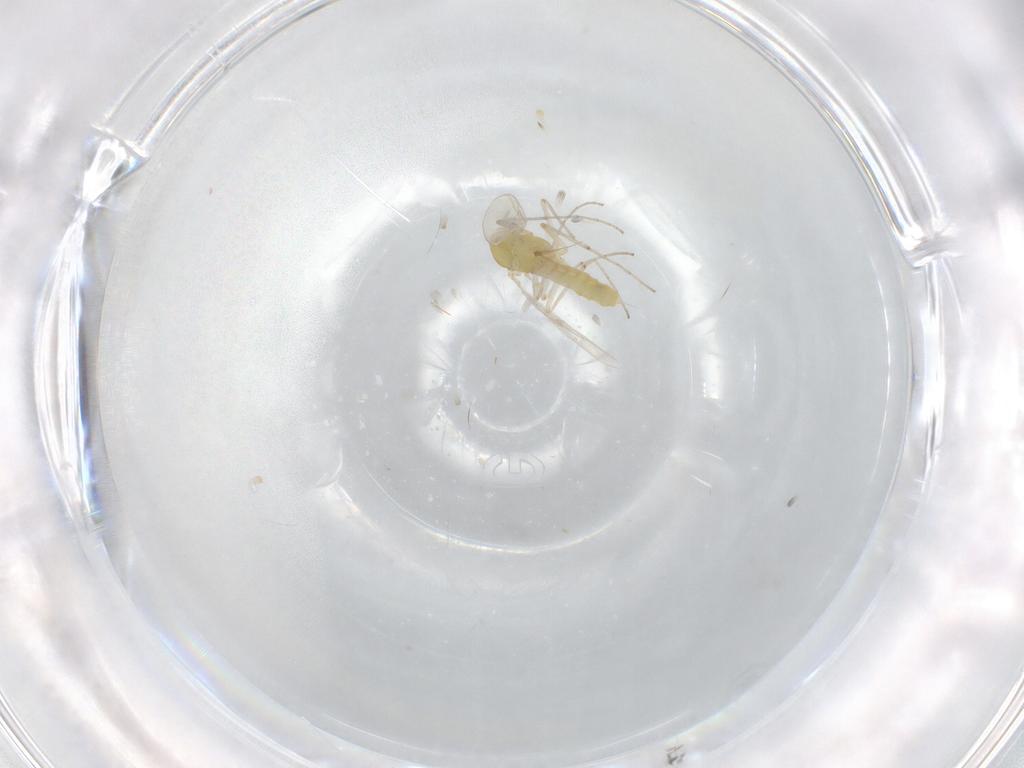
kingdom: Animalia
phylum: Arthropoda
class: Insecta
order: Diptera
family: Chironomidae
